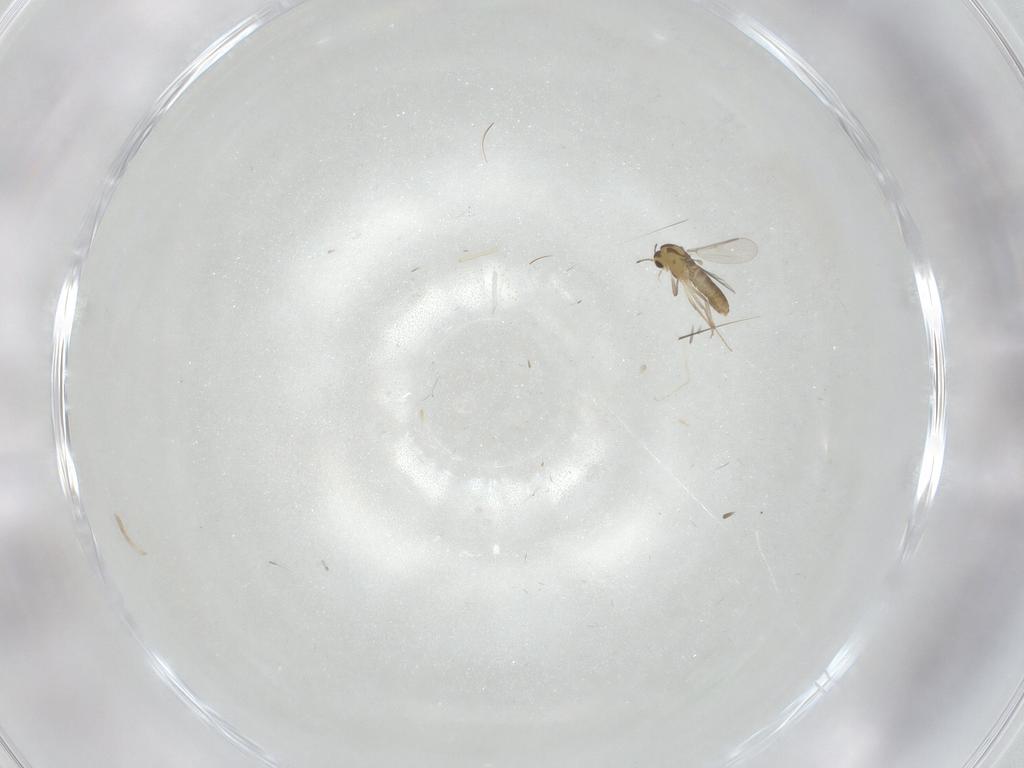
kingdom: Animalia
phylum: Arthropoda
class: Insecta
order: Diptera
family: Chironomidae
